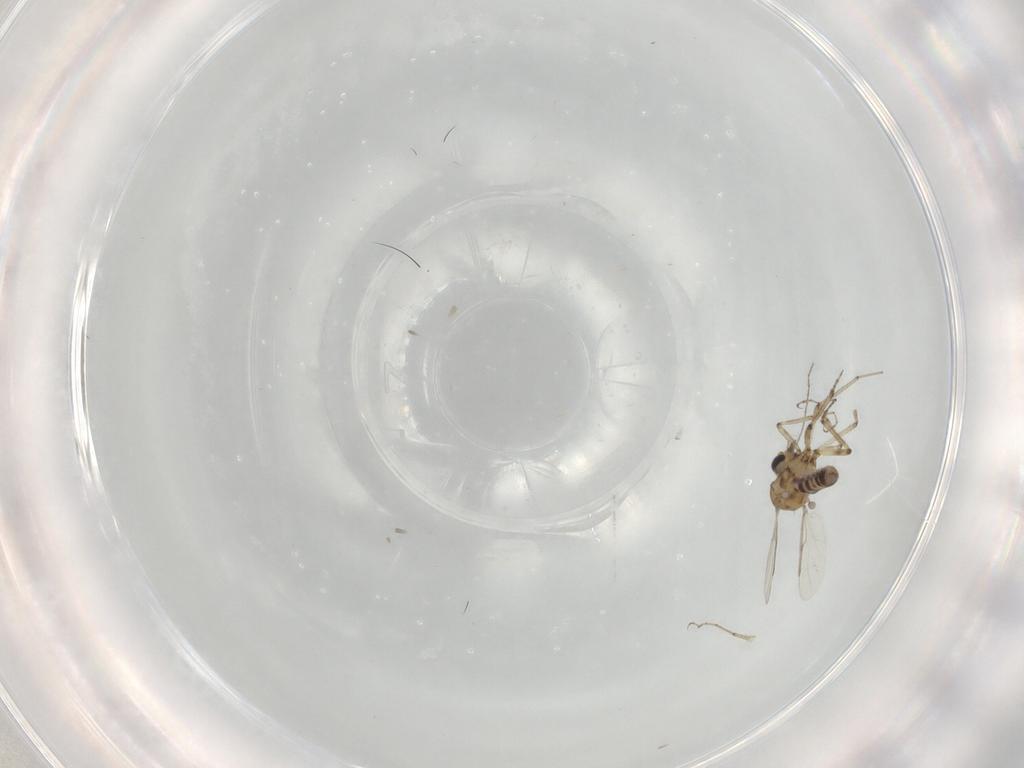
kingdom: Animalia
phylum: Arthropoda
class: Insecta
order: Diptera
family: Ceratopogonidae
